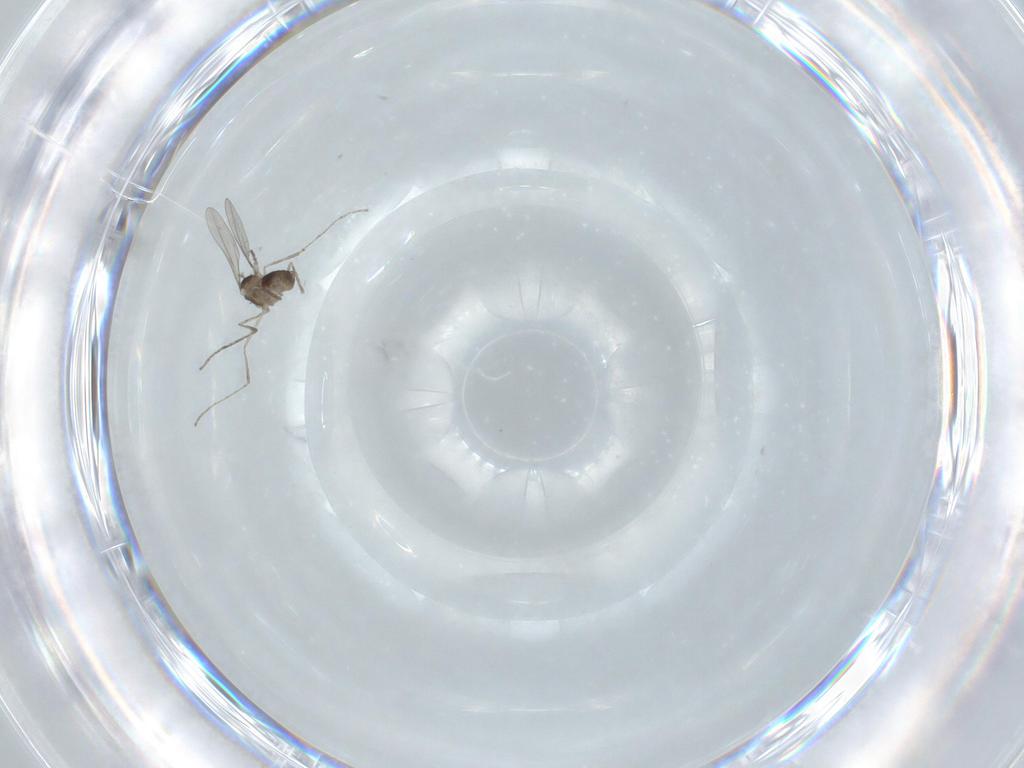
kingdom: Animalia
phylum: Arthropoda
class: Insecta
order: Diptera
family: Cecidomyiidae
